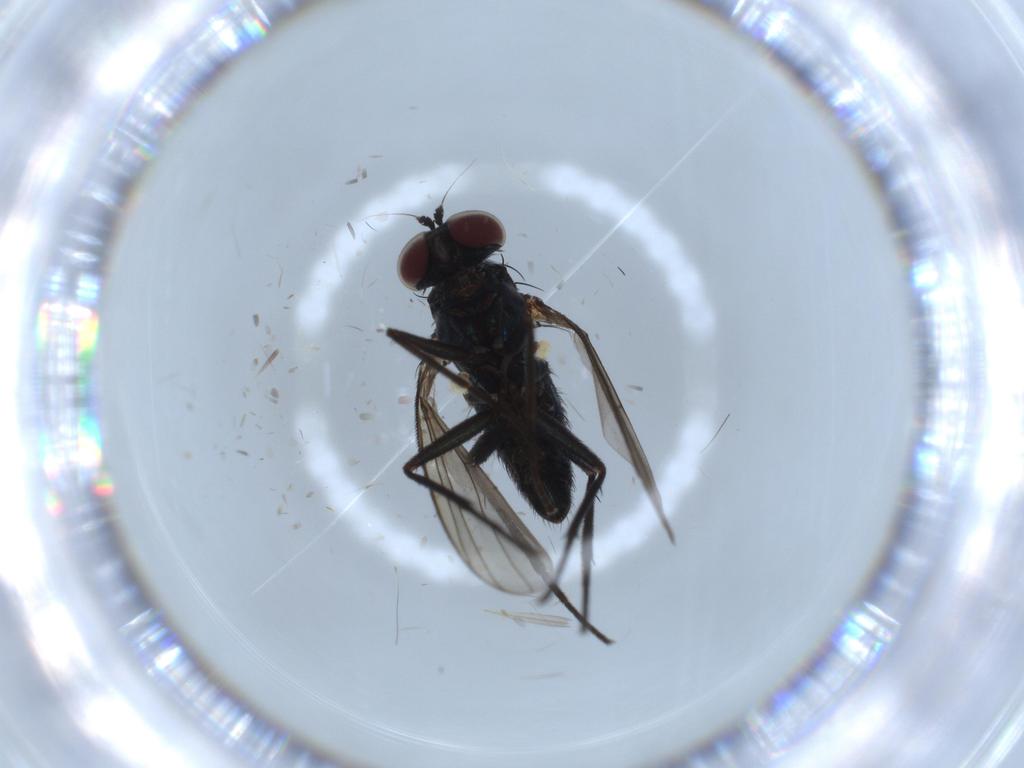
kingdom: Animalia
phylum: Arthropoda
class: Insecta
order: Diptera
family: Dolichopodidae
